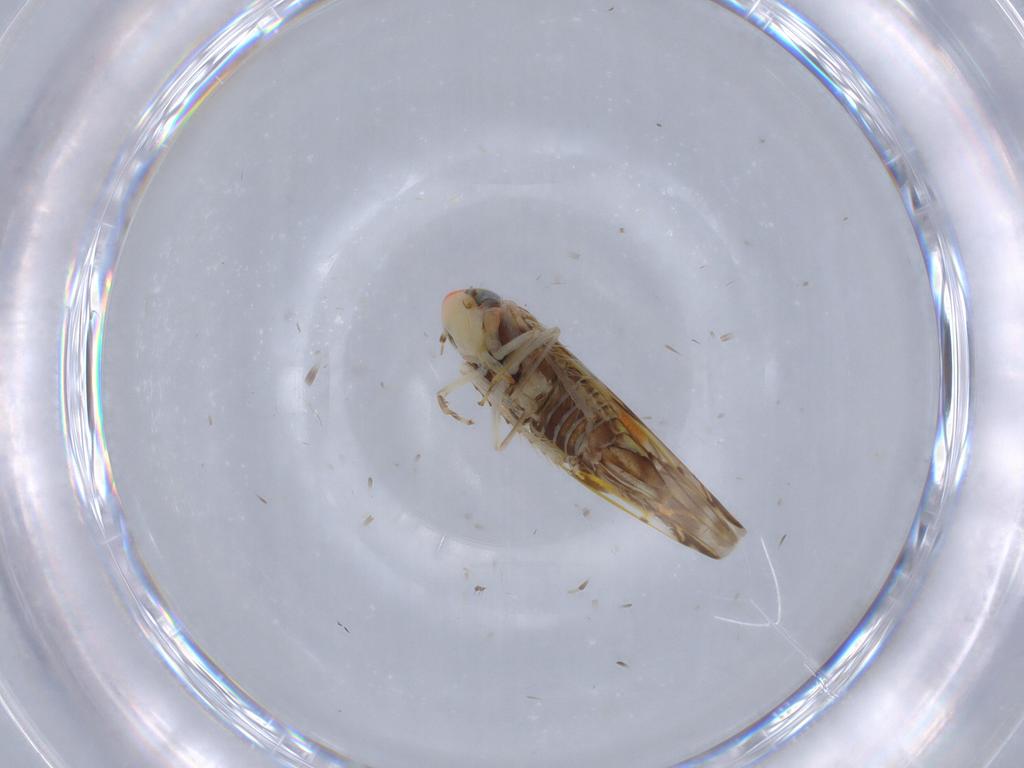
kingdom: Animalia
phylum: Arthropoda
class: Insecta
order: Hemiptera
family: Cicadellidae
